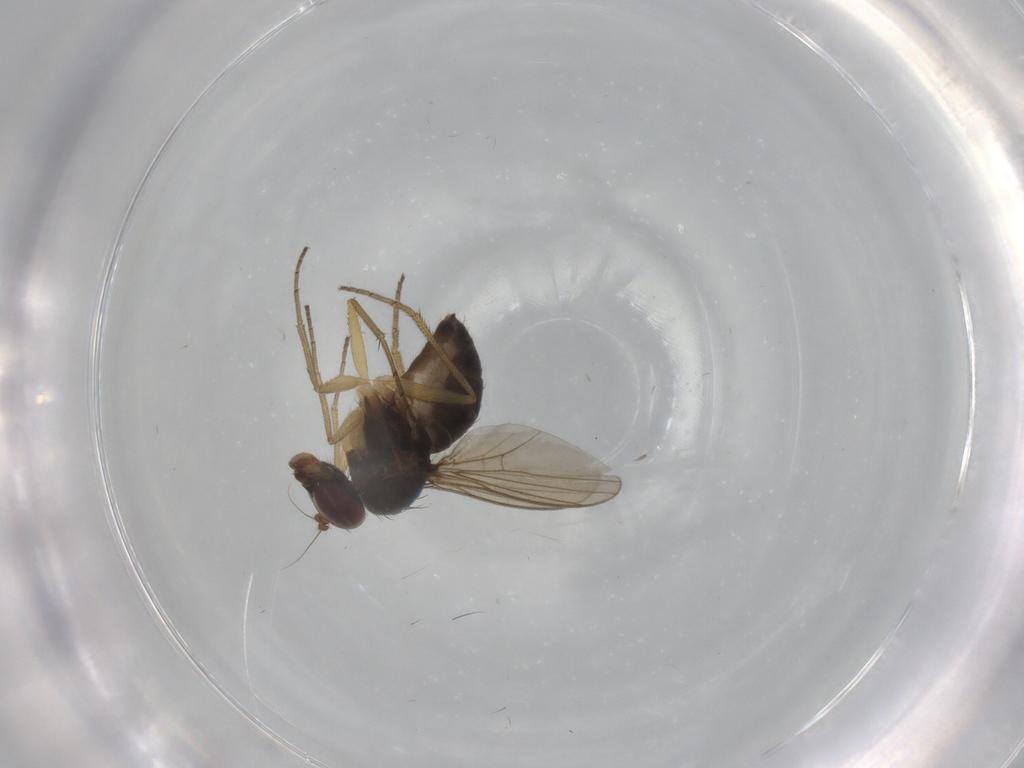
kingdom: Animalia
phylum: Arthropoda
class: Insecta
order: Diptera
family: Dolichopodidae
